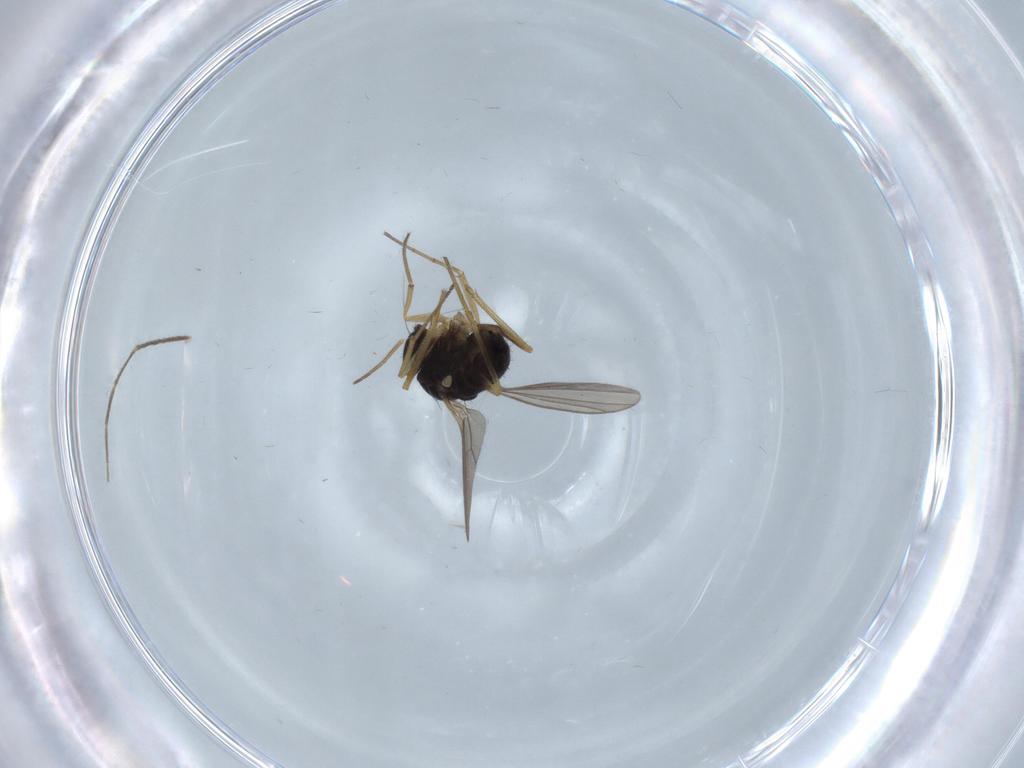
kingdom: Animalia
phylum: Arthropoda
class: Insecta
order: Diptera
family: Dolichopodidae
